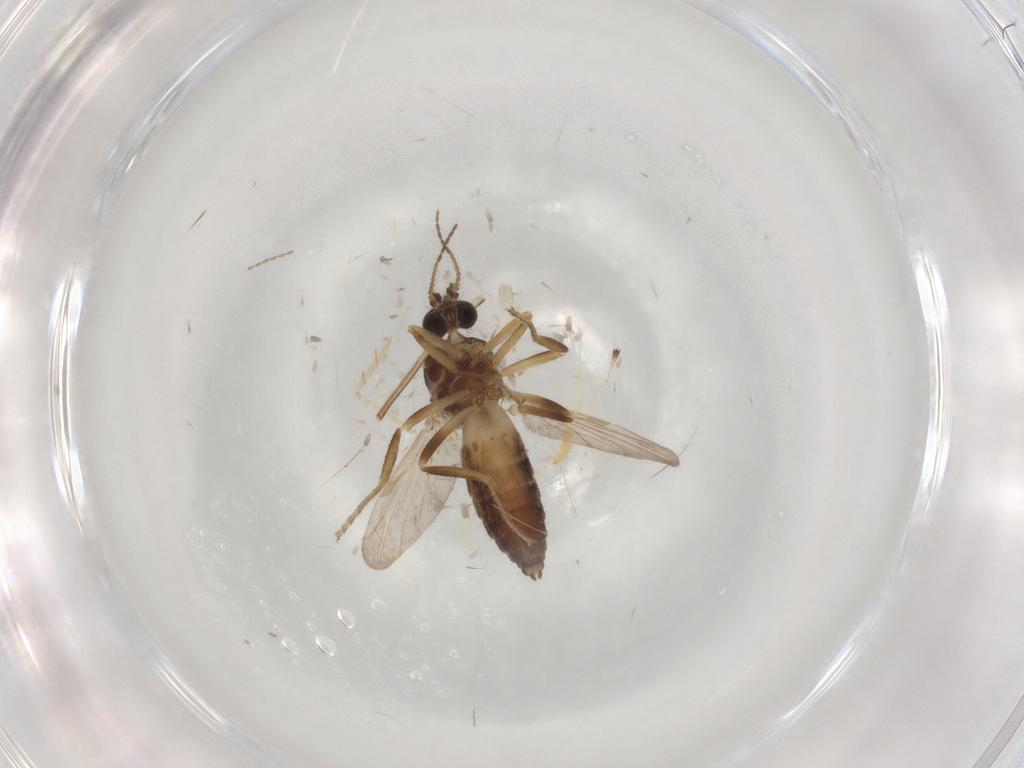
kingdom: Animalia
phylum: Arthropoda
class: Insecta
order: Diptera
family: Ceratopogonidae
